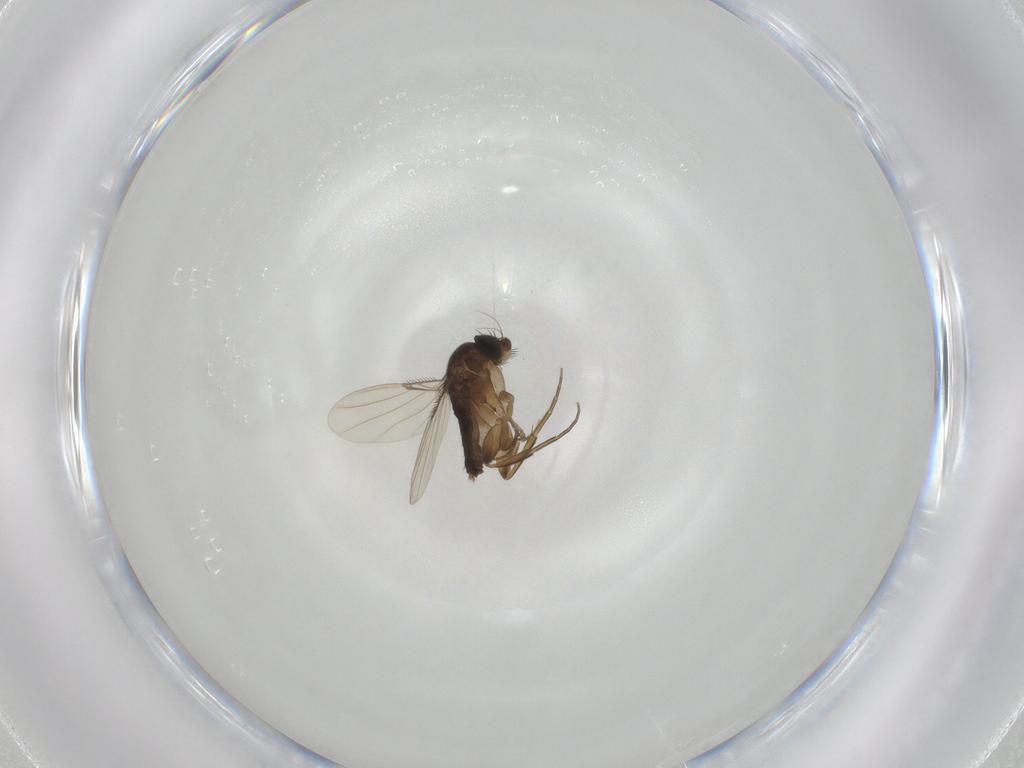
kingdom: Animalia
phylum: Arthropoda
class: Insecta
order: Diptera
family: Phoridae
